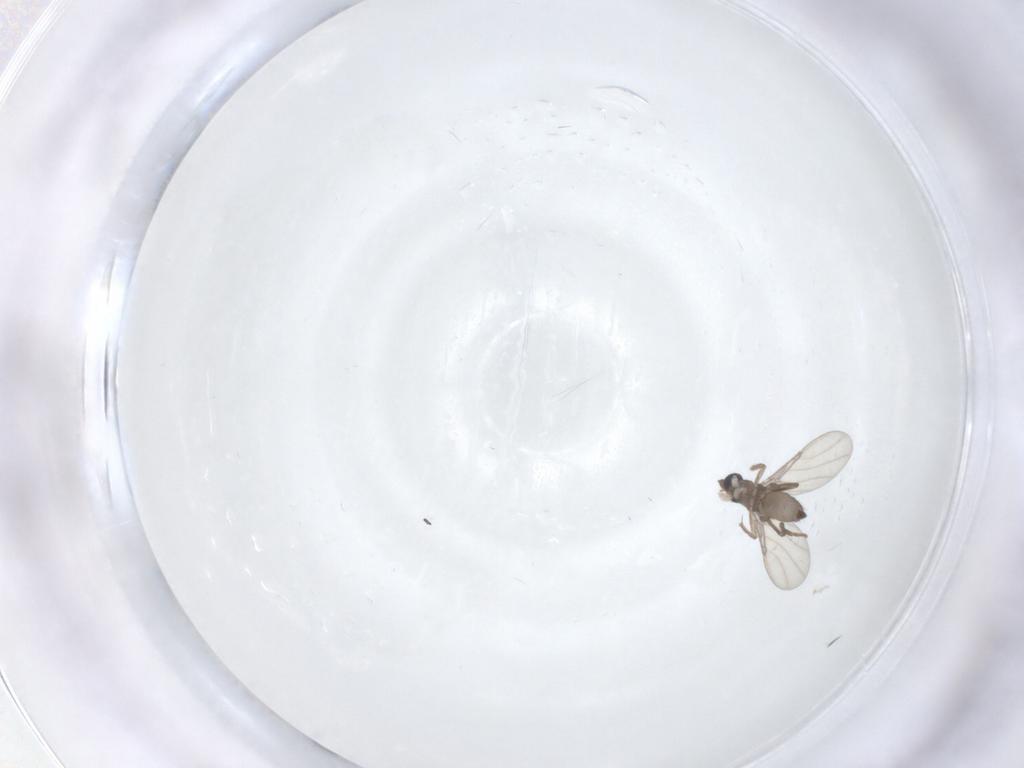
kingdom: Animalia
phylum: Arthropoda
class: Insecta
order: Diptera
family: Phoridae
